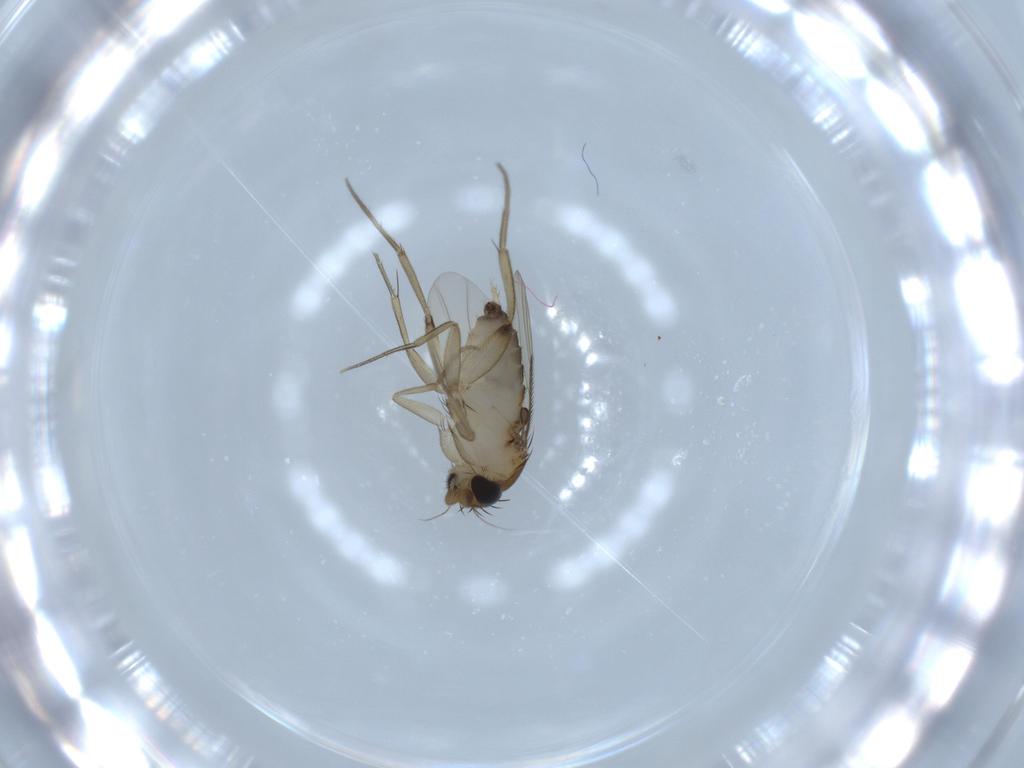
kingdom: Animalia
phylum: Arthropoda
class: Insecta
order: Diptera
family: Phoridae
